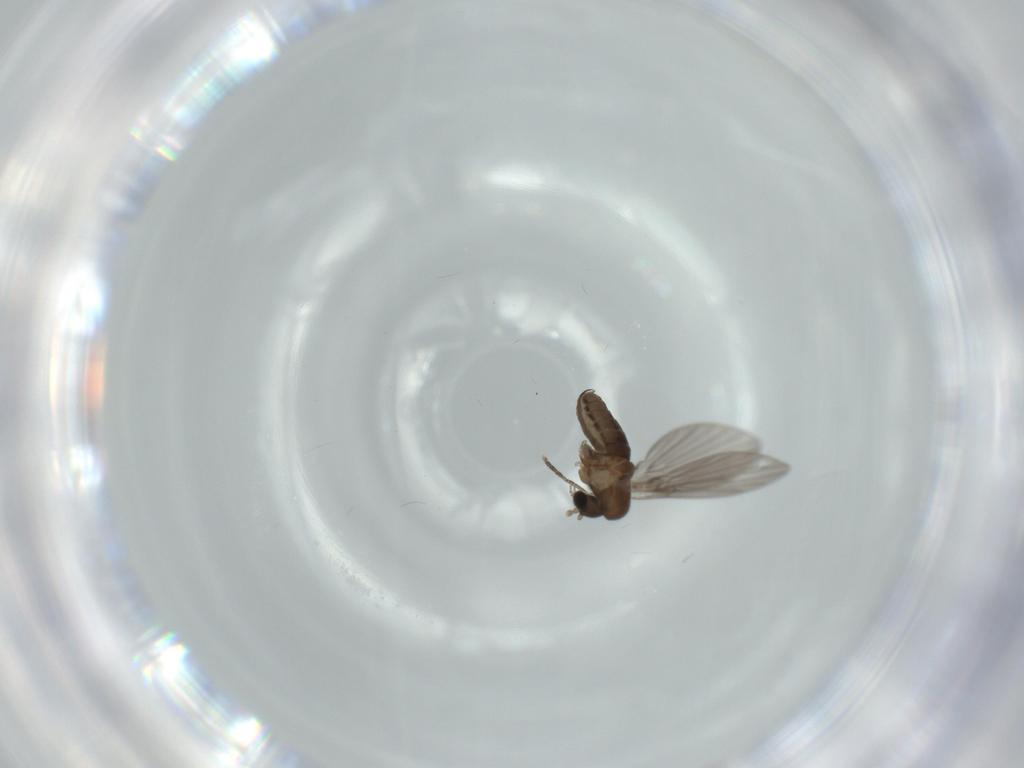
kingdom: Animalia
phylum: Arthropoda
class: Insecta
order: Diptera
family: Psychodidae
